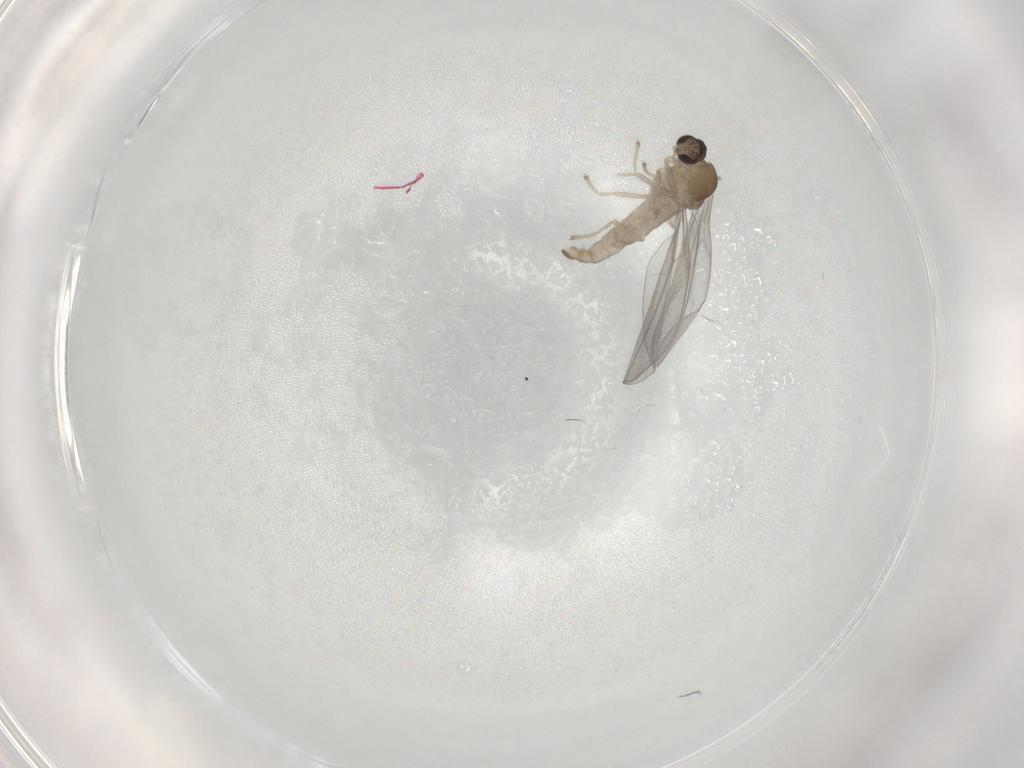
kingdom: Animalia
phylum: Arthropoda
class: Insecta
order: Diptera
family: Cecidomyiidae
